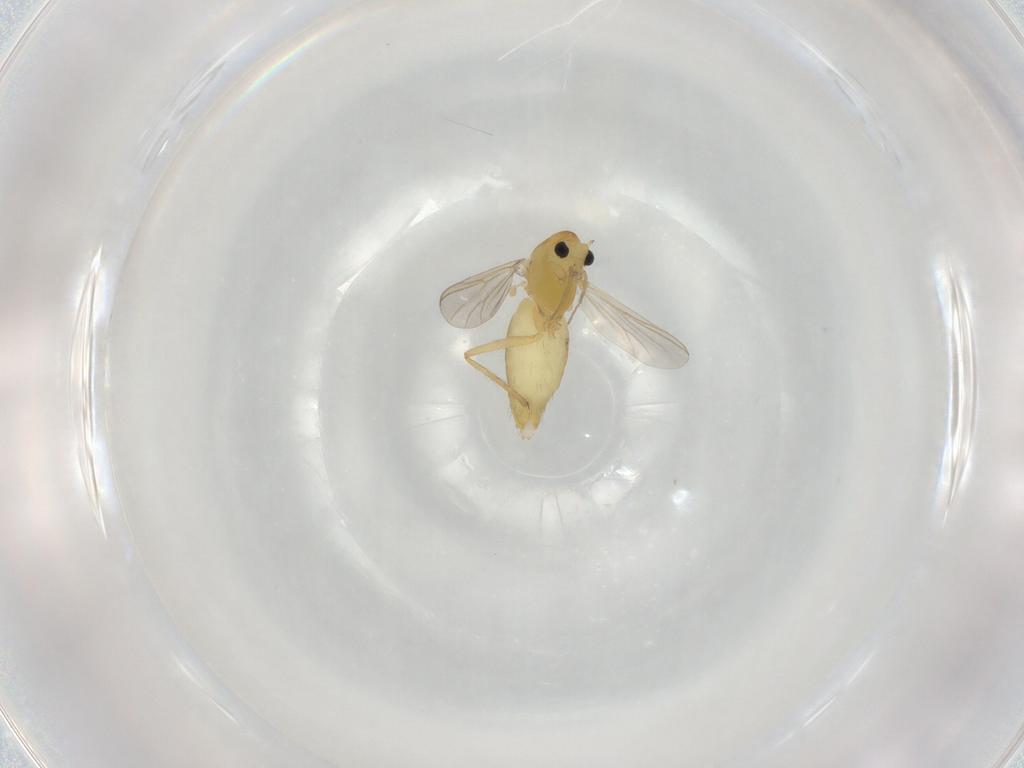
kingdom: Animalia
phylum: Arthropoda
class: Insecta
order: Diptera
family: Chironomidae
